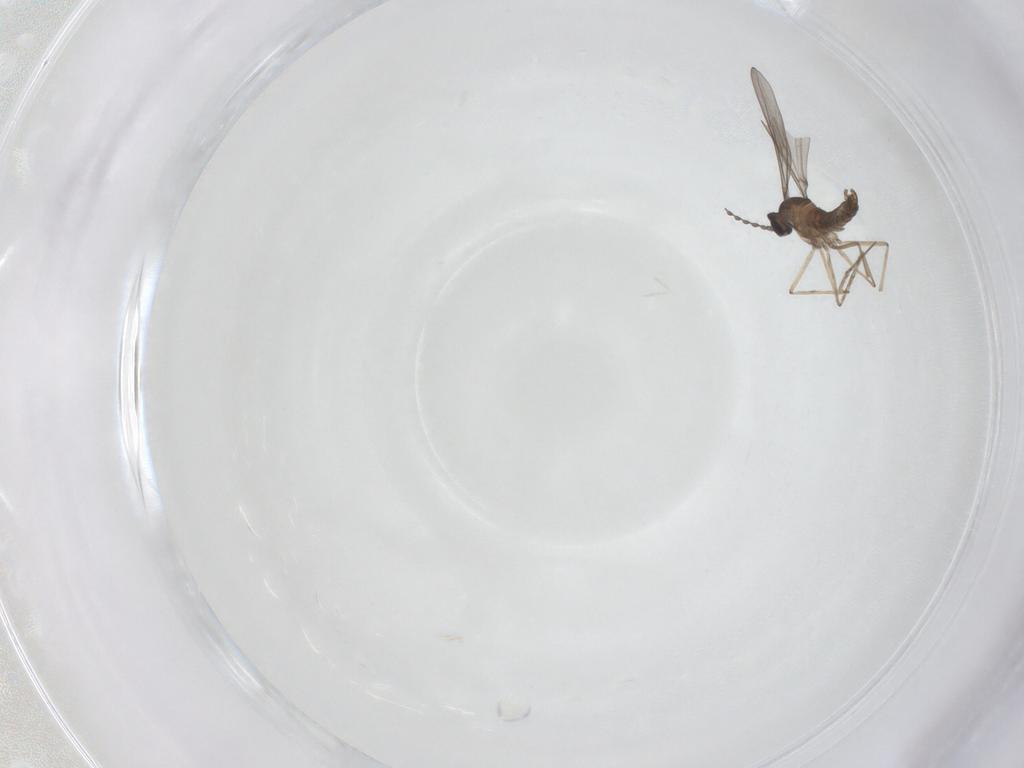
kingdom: Animalia
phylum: Arthropoda
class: Insecta
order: Diptera
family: Cecidomyiidae
